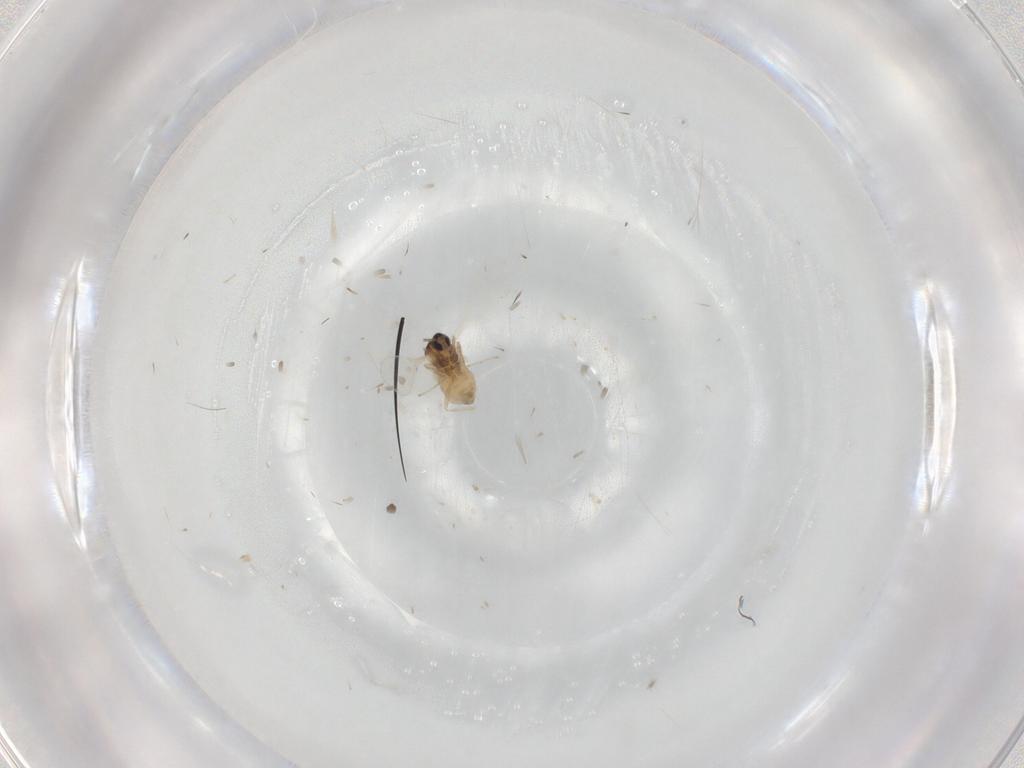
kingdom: Animalia
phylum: Arthropoda
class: Insecta
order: Diptera
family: Cecidomyiidae
